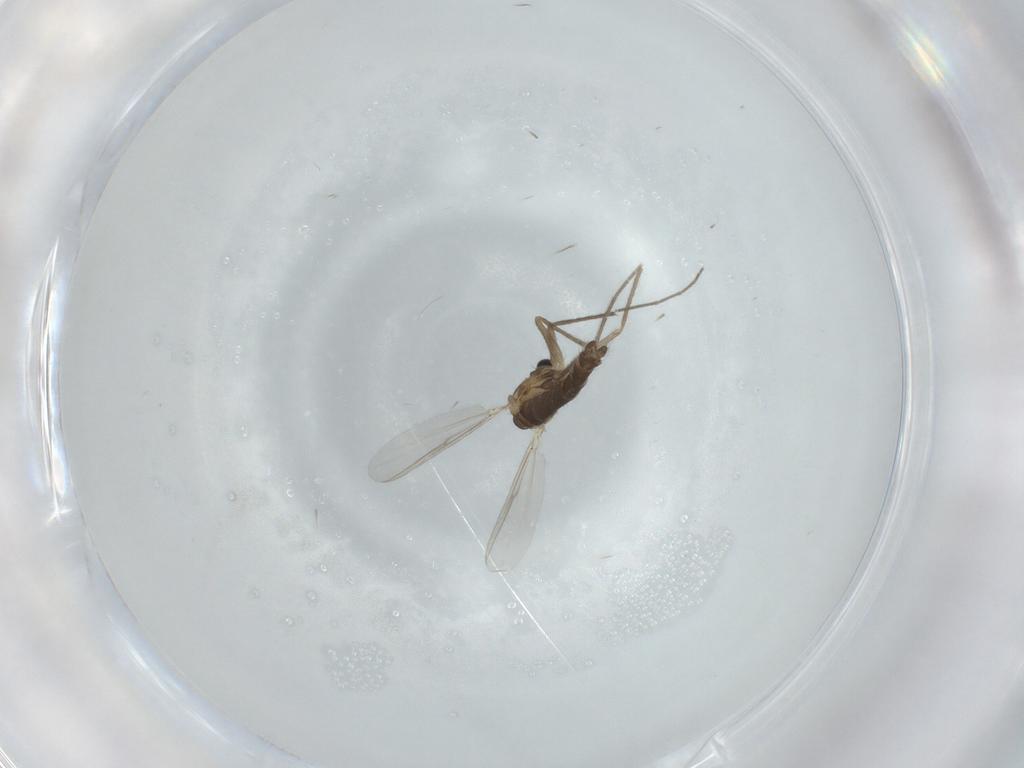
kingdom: Animalia
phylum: Arthropoda
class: Insecta
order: Diptera
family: Chironomidae
